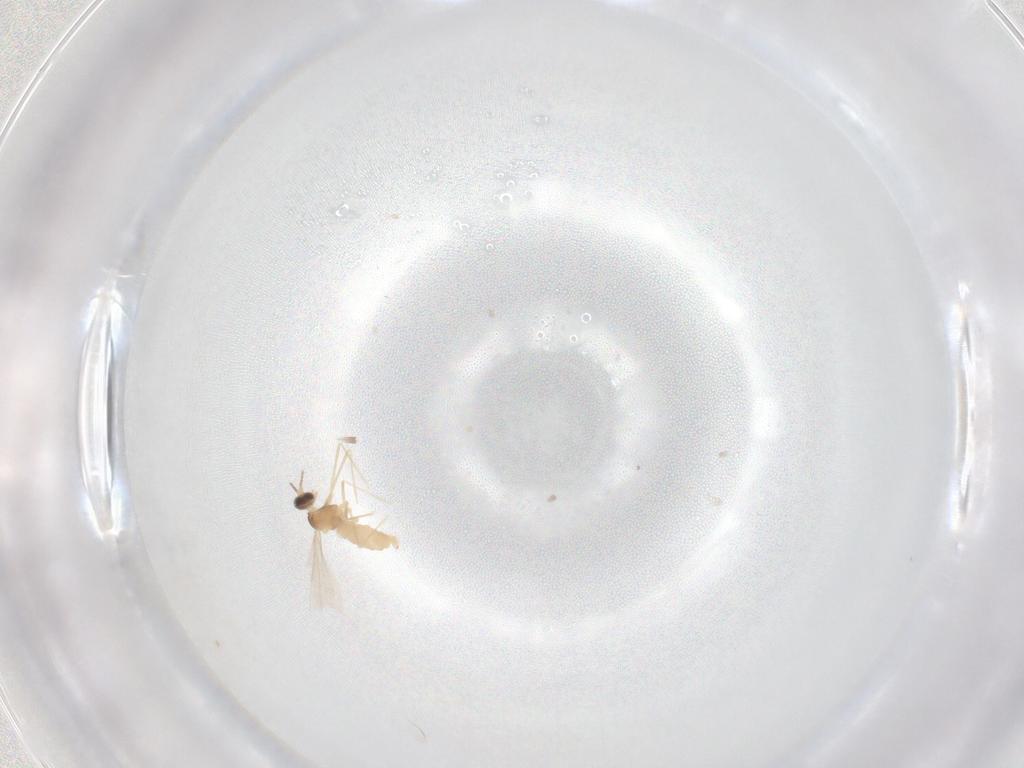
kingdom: Animalia
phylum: Arthropoda
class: Insecta
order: Diptera
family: Cecidomyiidae
